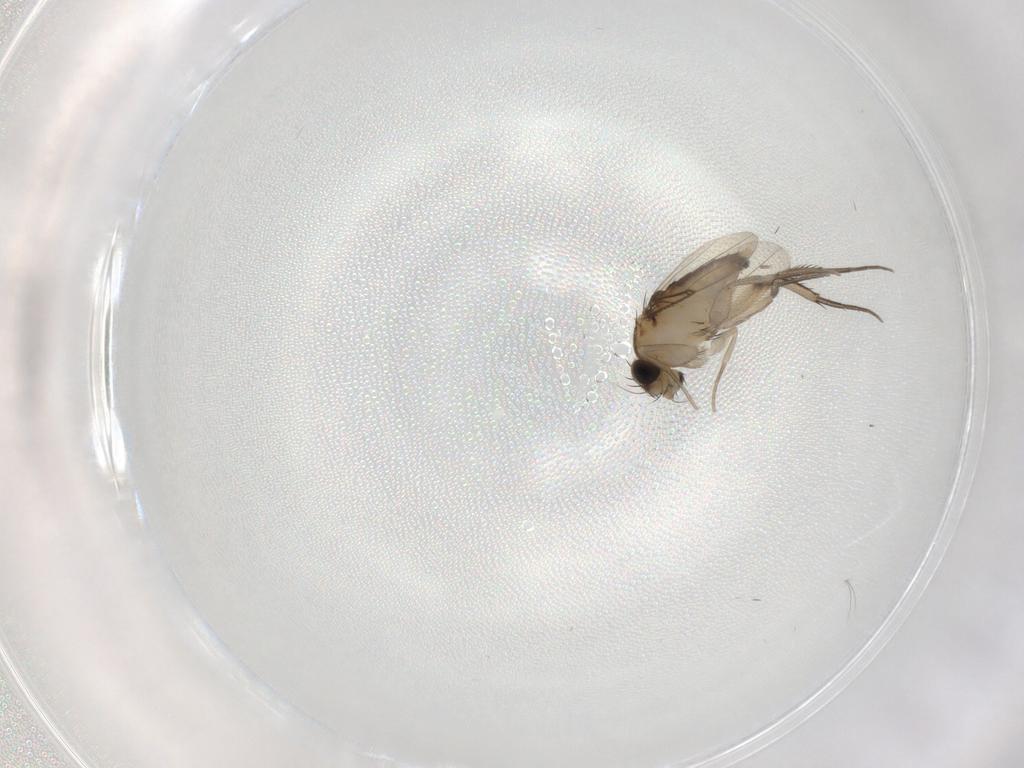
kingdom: Animalia
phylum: Arthropoda
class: Insecta
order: Diptera
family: Sphaeroceridae
